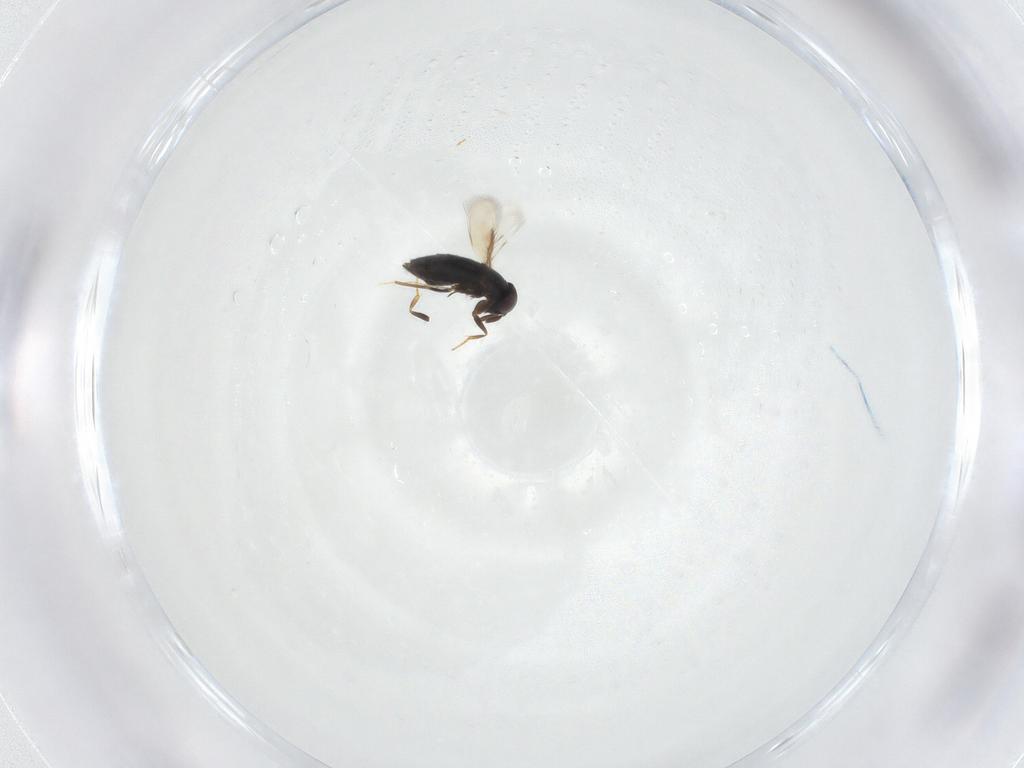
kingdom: Animalia
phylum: Arthropoda
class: Insecta
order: Hymenoptera
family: Signiphoridae
